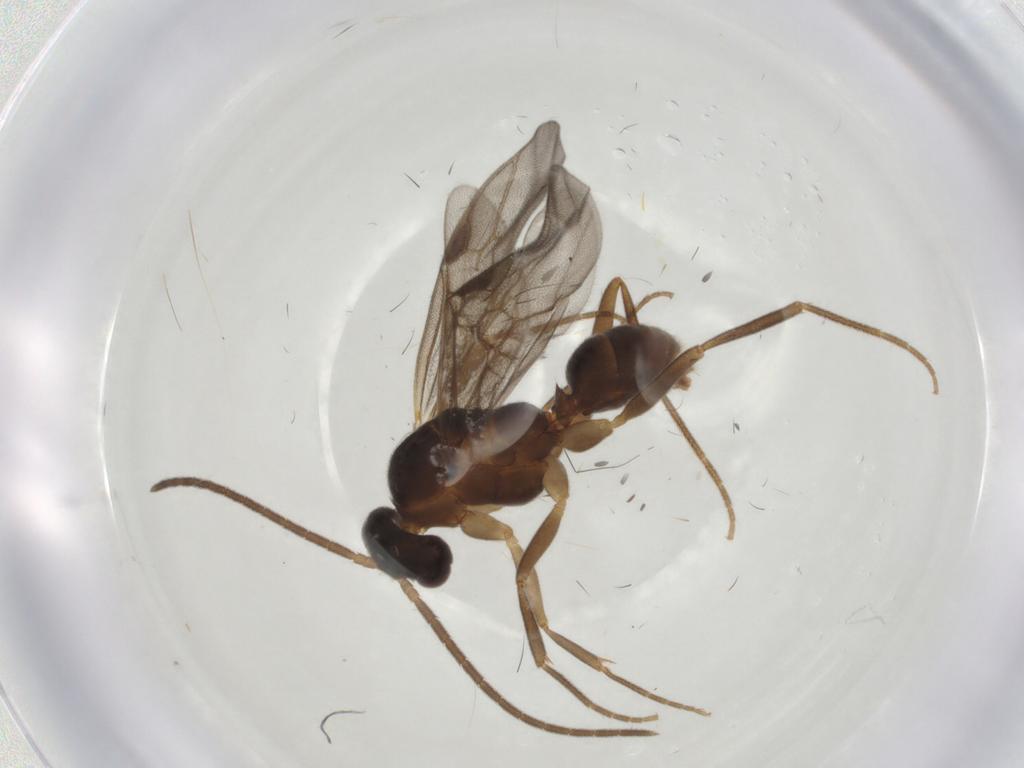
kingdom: Animalia
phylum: Arthropoda
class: Insecta
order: Hymenoptera
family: Formicidae
